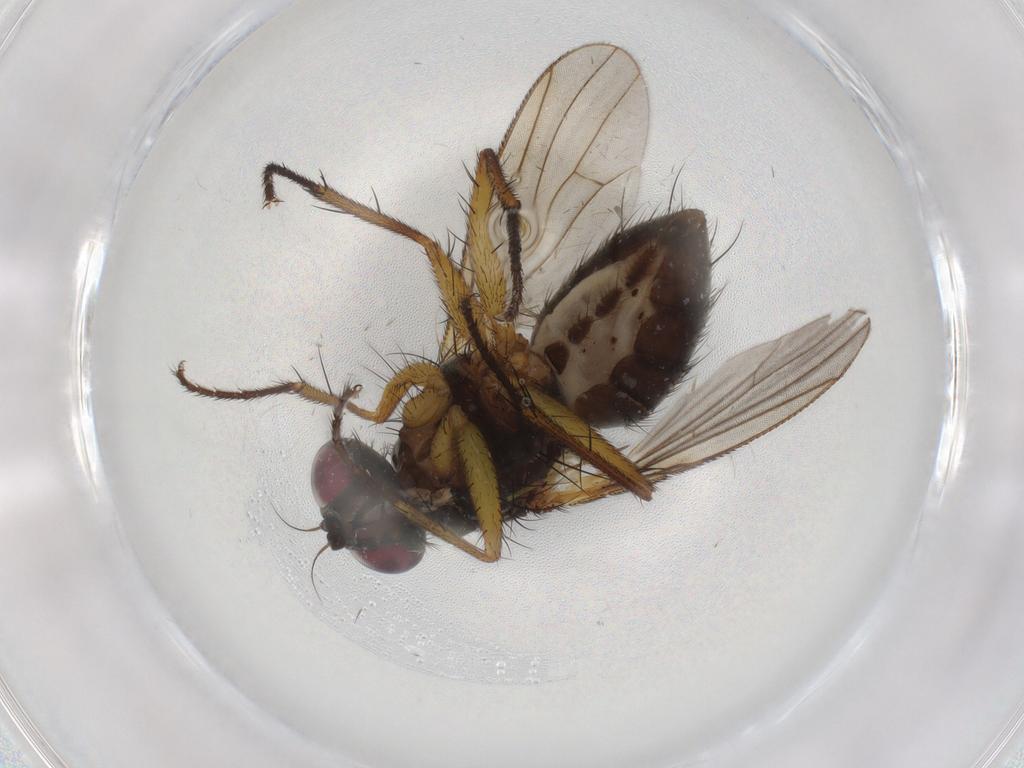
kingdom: Animalia
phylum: Arthropoda
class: Insecta
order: Diptera
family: Muscidae
